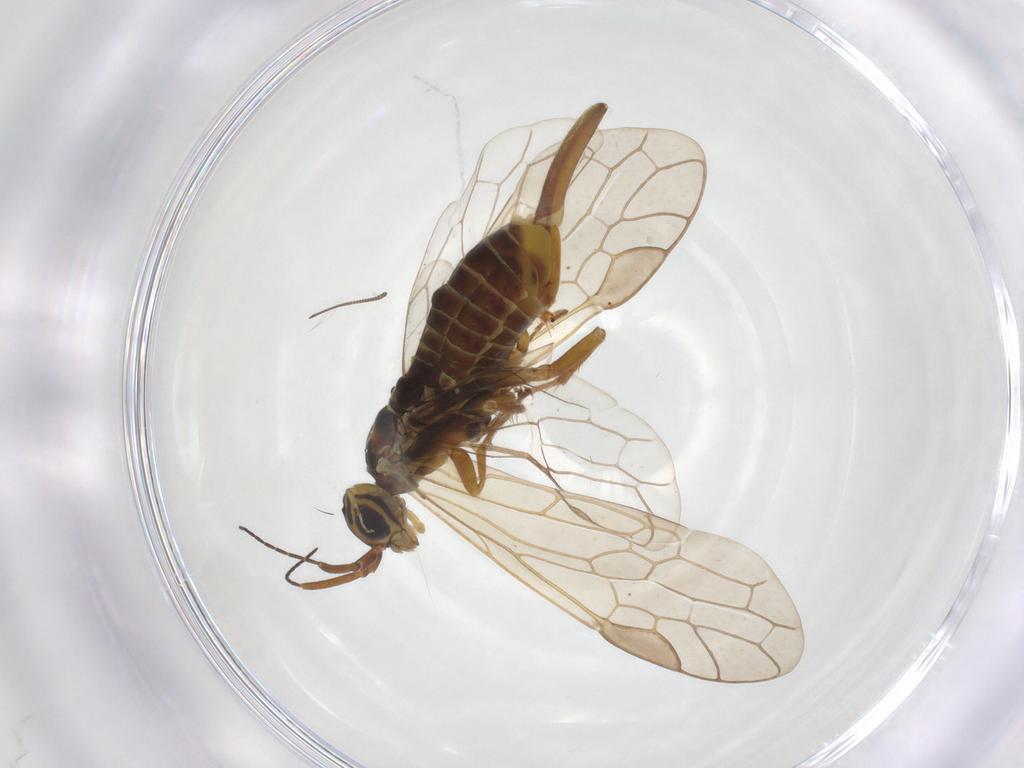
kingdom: Animalia
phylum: Arthropoda
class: Insecta
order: Hymenoptera
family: Xyelidae
